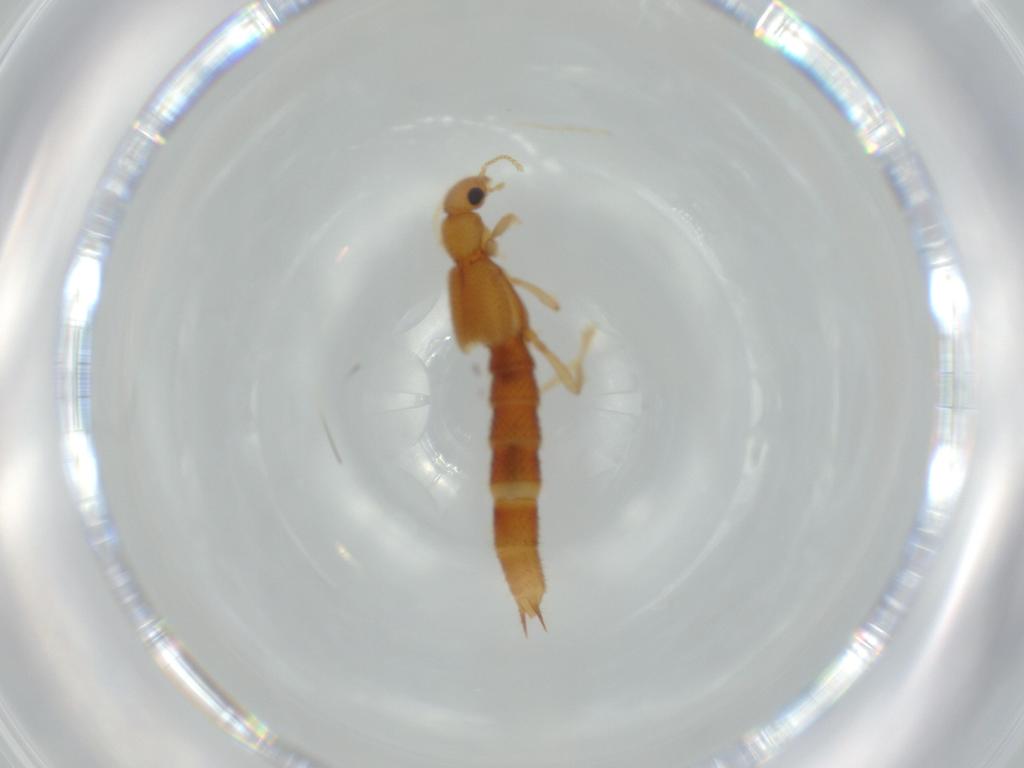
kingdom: Animalia
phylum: Arthropoda
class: Insecta
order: Coleoptera
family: Staphylinidae
